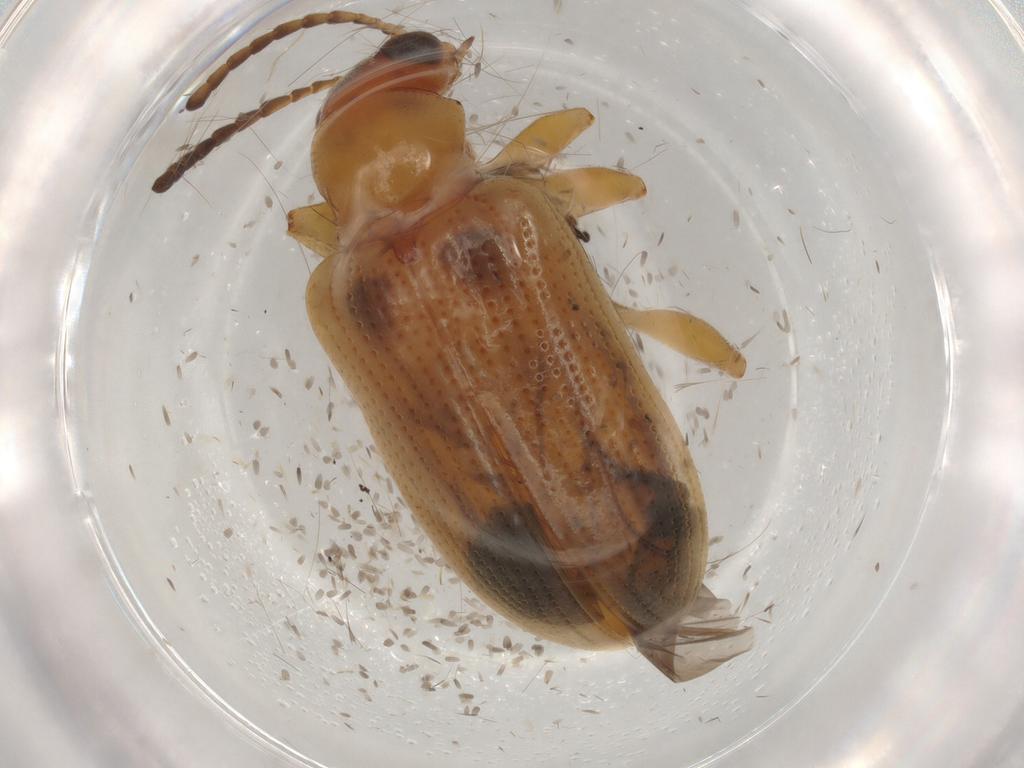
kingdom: Animalia
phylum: Arthropoda
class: Insecta
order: Coleoptera
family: Chrysomelidae
